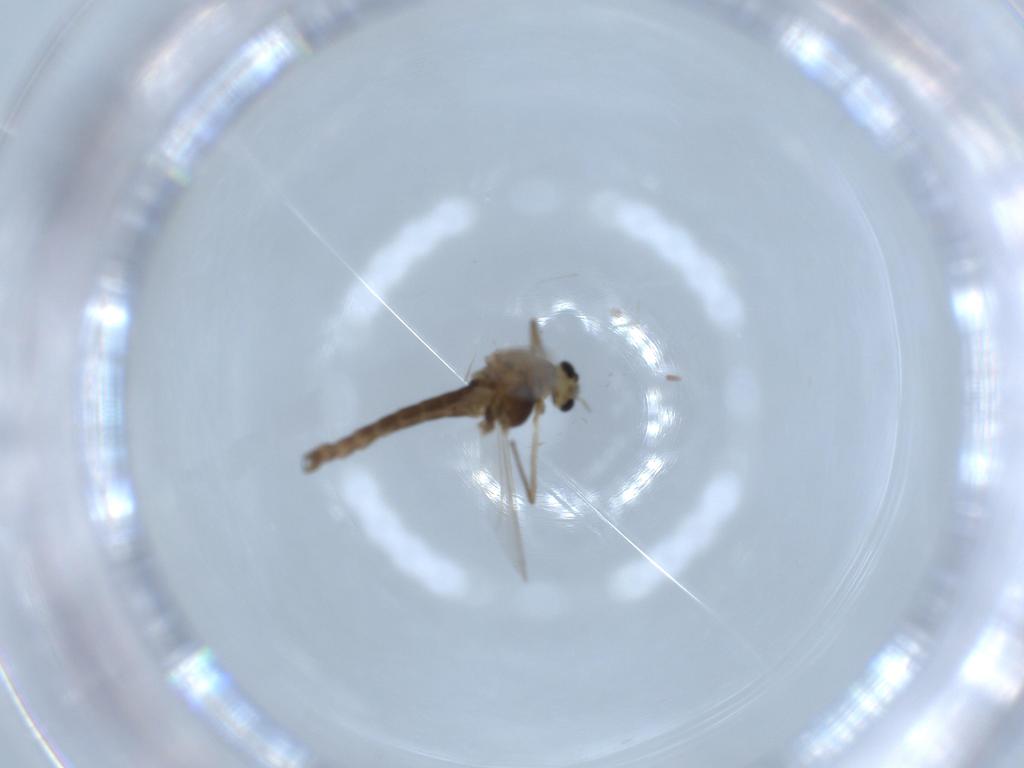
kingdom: Animalia
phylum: Arthropoda
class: Insecta
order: Diptera
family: Chironomidae
